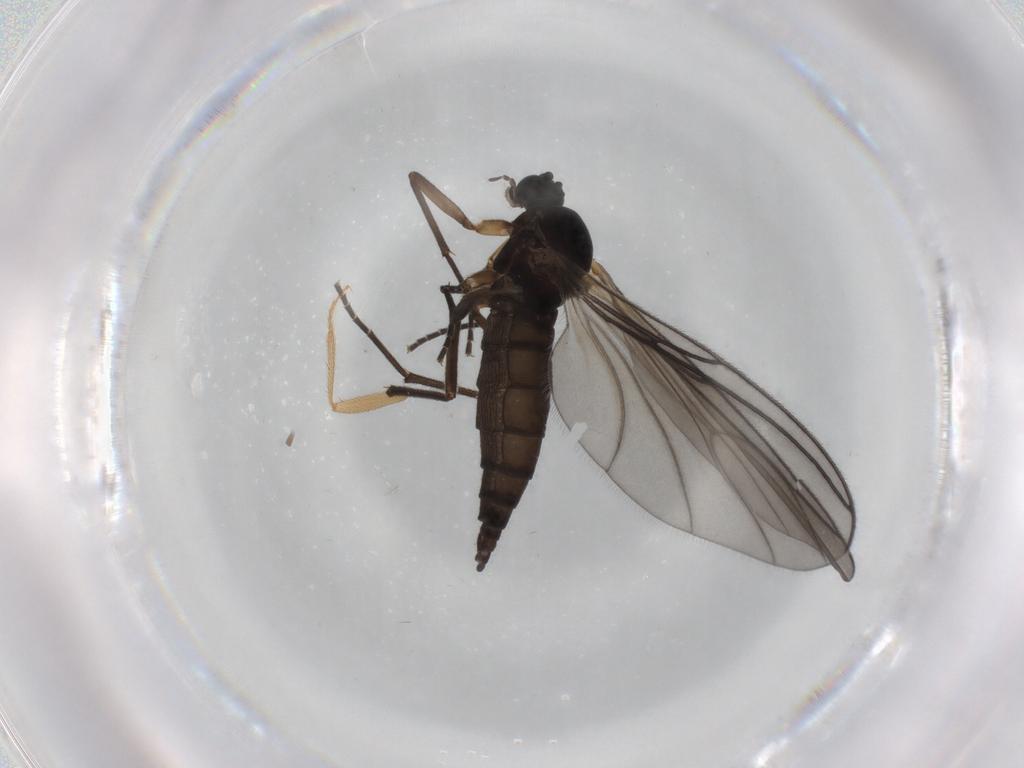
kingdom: Animalia
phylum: Arthropoda
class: Insecta
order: Diptera
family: Sciaridae
